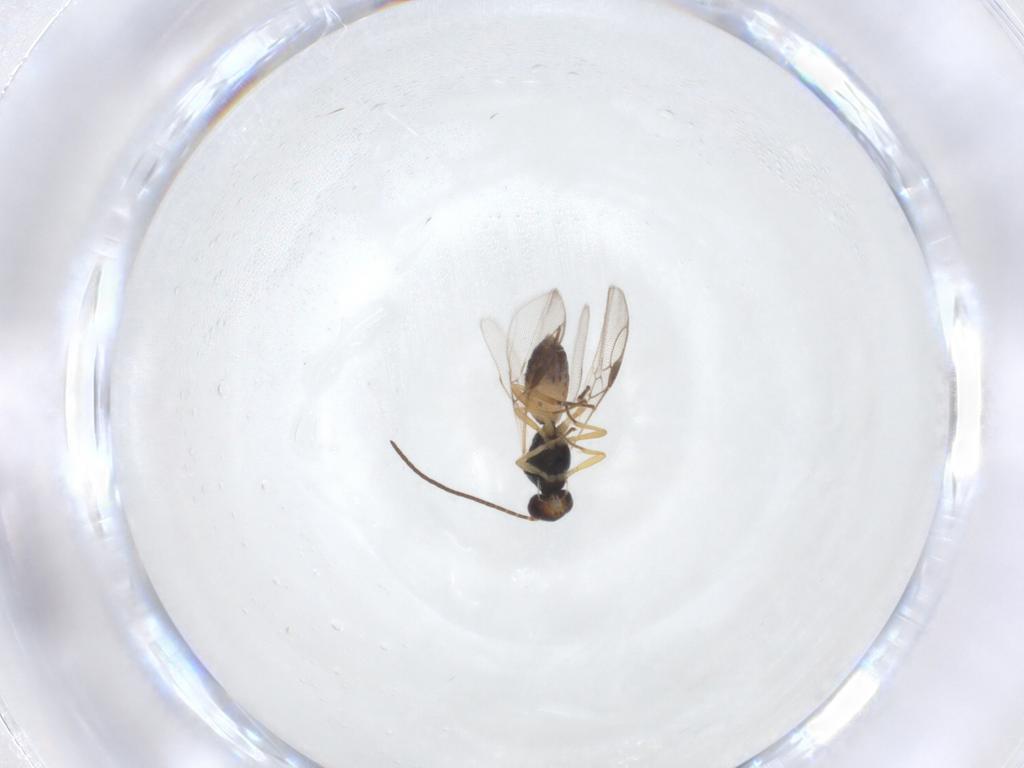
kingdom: Animalia
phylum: Arthropoda
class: Insecta
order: Hymenoptera
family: Braconidae
